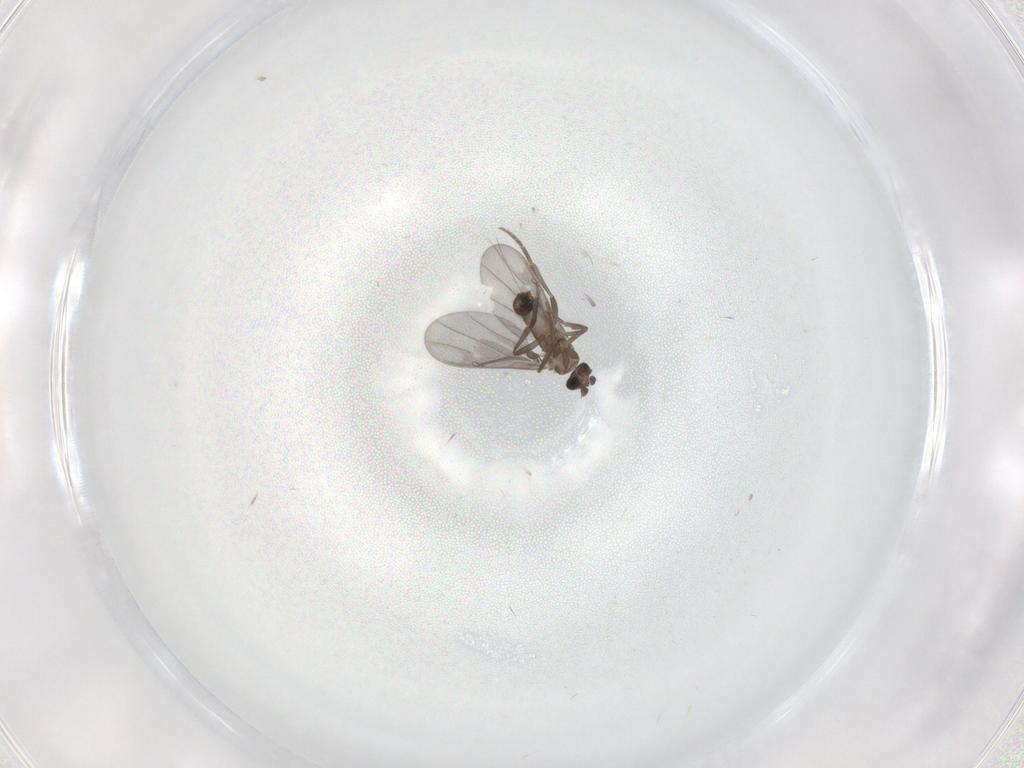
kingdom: Animalia
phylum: Arthropoda
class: Insecta
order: Diptera
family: Phoridae
